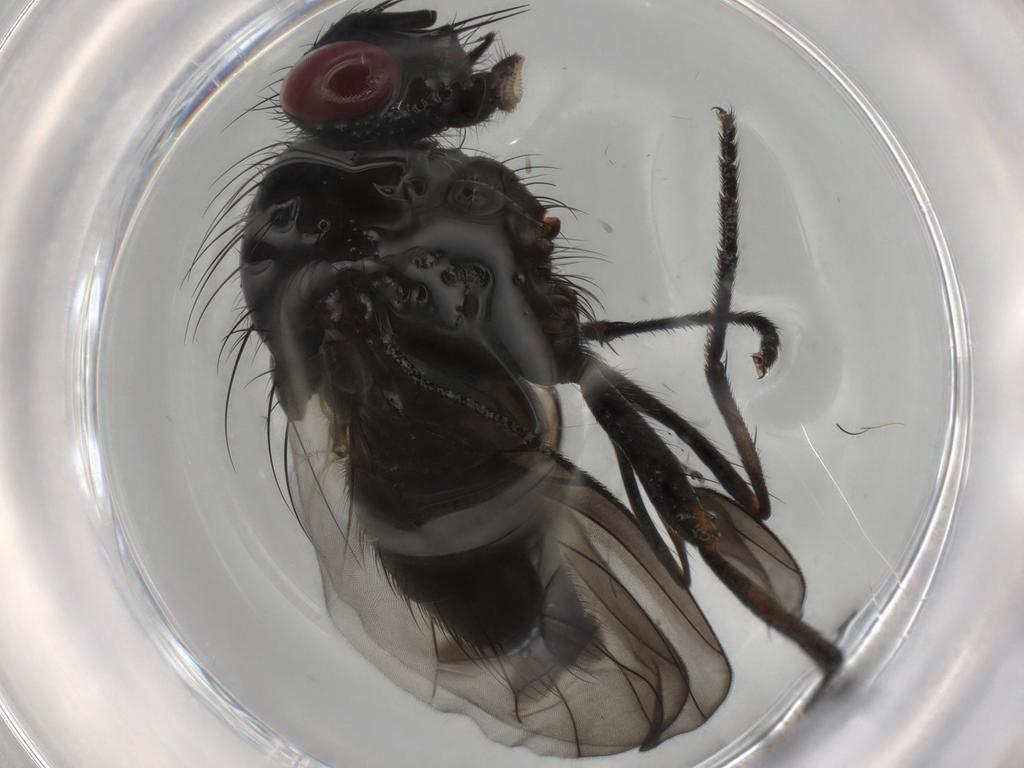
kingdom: Animalia
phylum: Arthropoda
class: Insecta
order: Diptera
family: Muscidae
